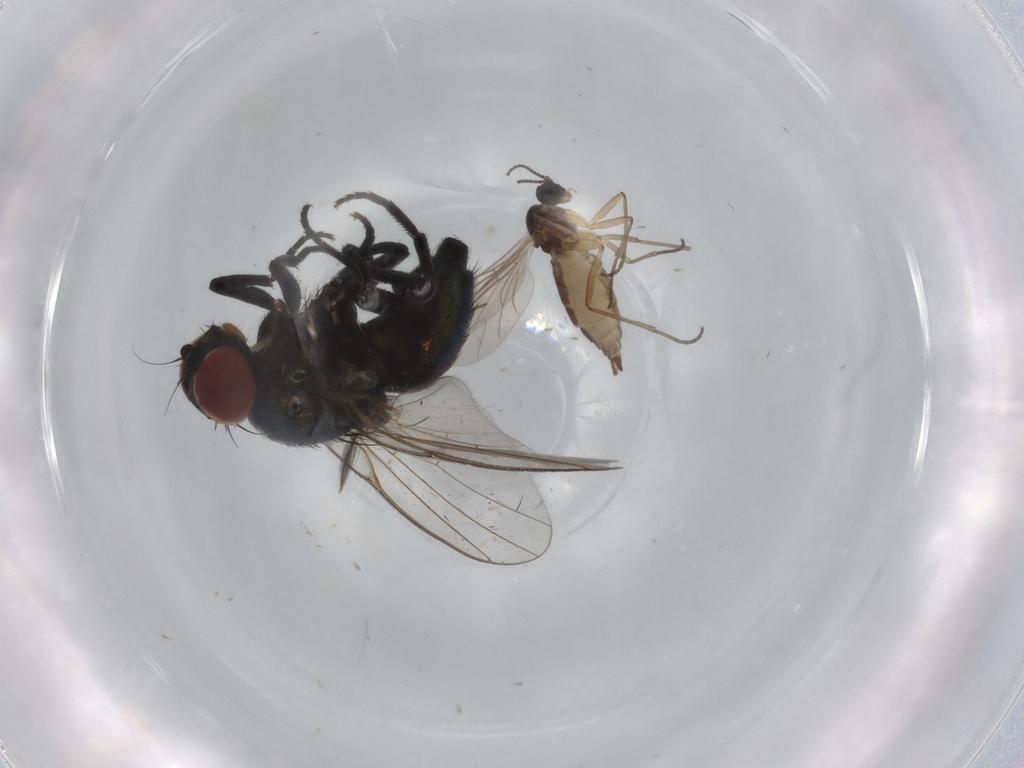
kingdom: Animalia
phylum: Arthropoda
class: Insecta
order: Diptera
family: Agromyzidae
